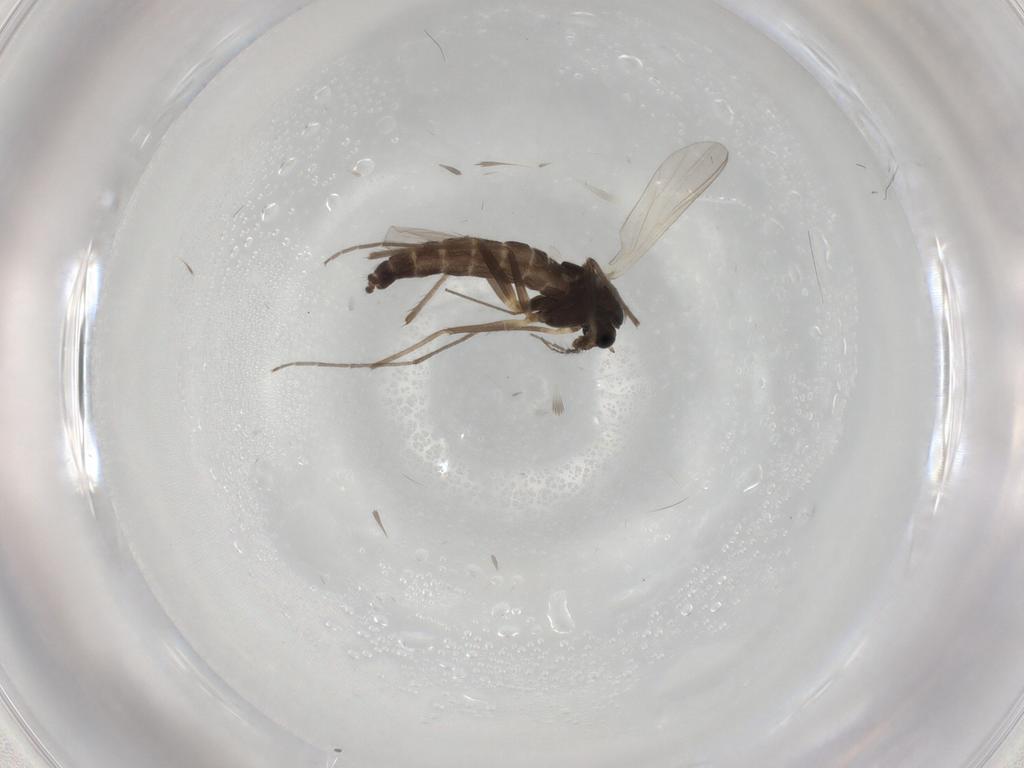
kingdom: Animalia
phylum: Arthropoda
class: Insecta
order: Diptera
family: Chironomidae
